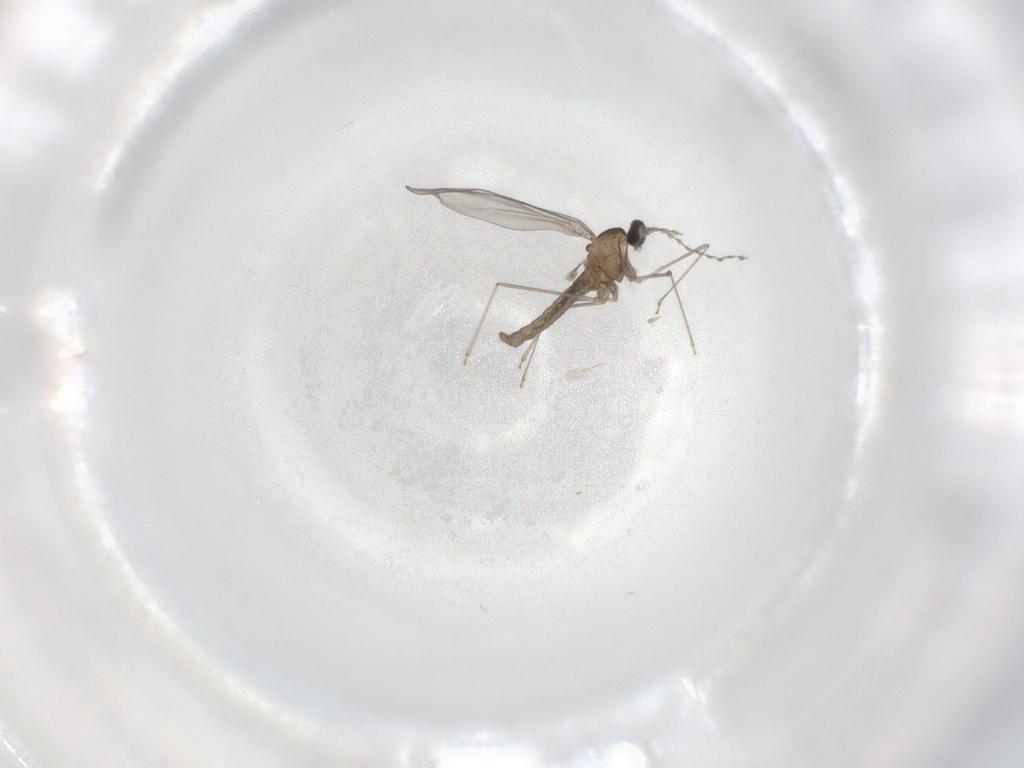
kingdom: Animalia
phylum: Arthropoda
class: Insecta
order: Diptera
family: Cecidomyiidae
